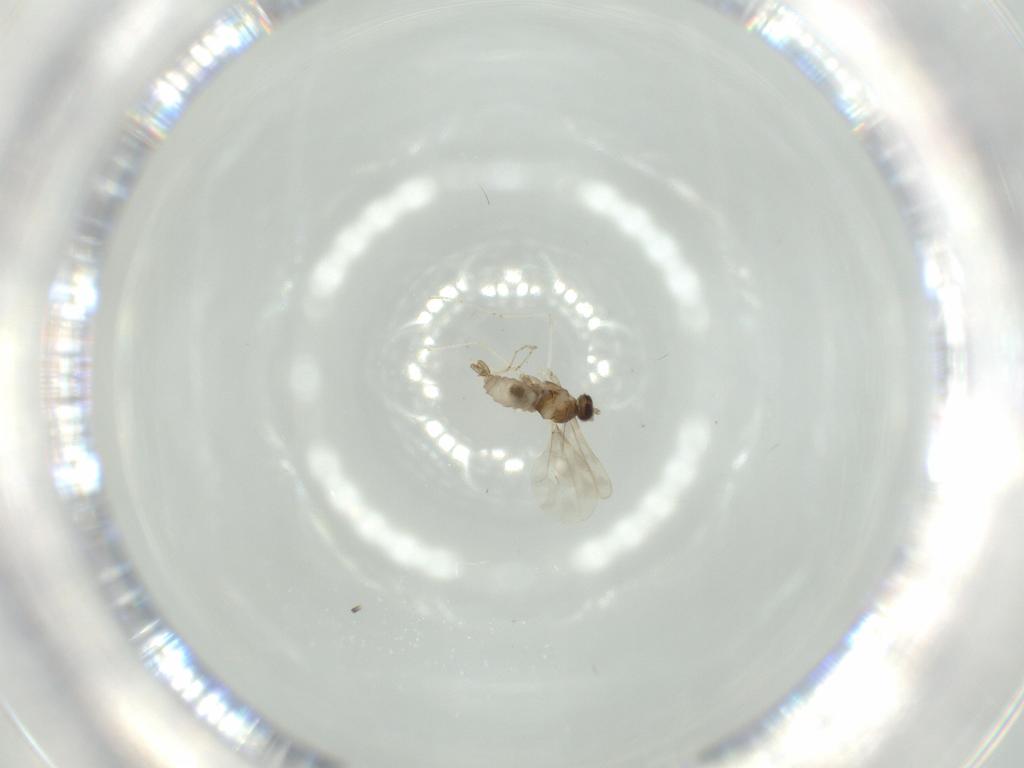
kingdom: Animalia
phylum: Arthropoda
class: Insecta
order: Diptera
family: Cecidomyiidae
